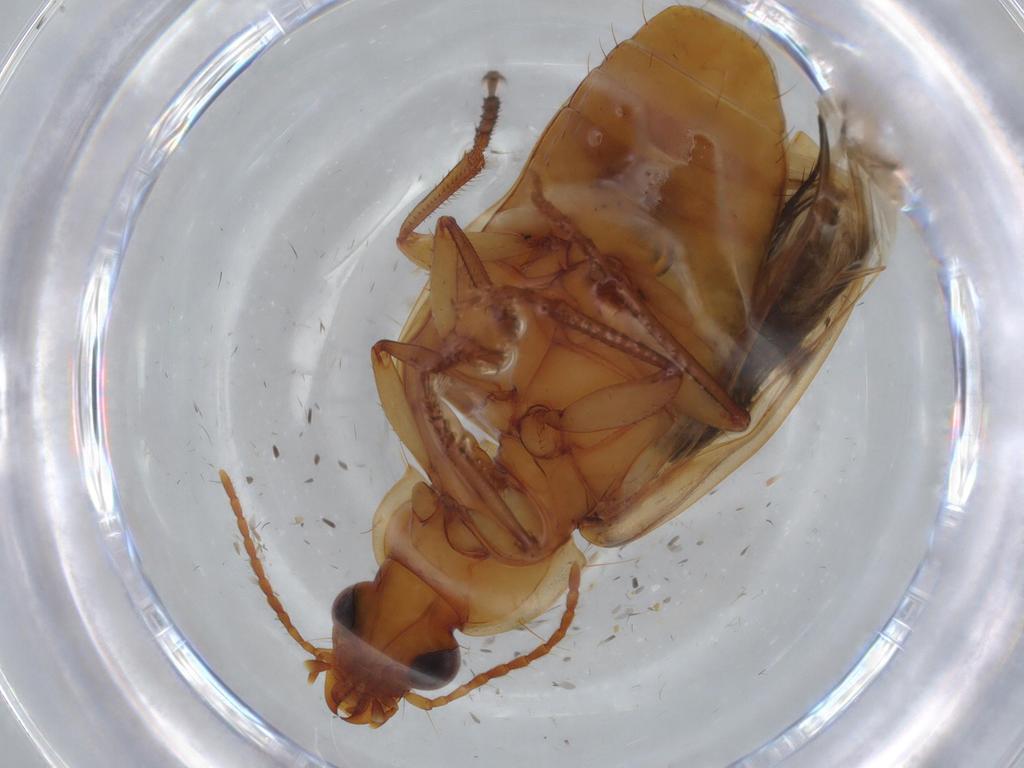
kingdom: Animalia
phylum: Arthropoda
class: Insecta
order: Coleoptera
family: Carabidae
